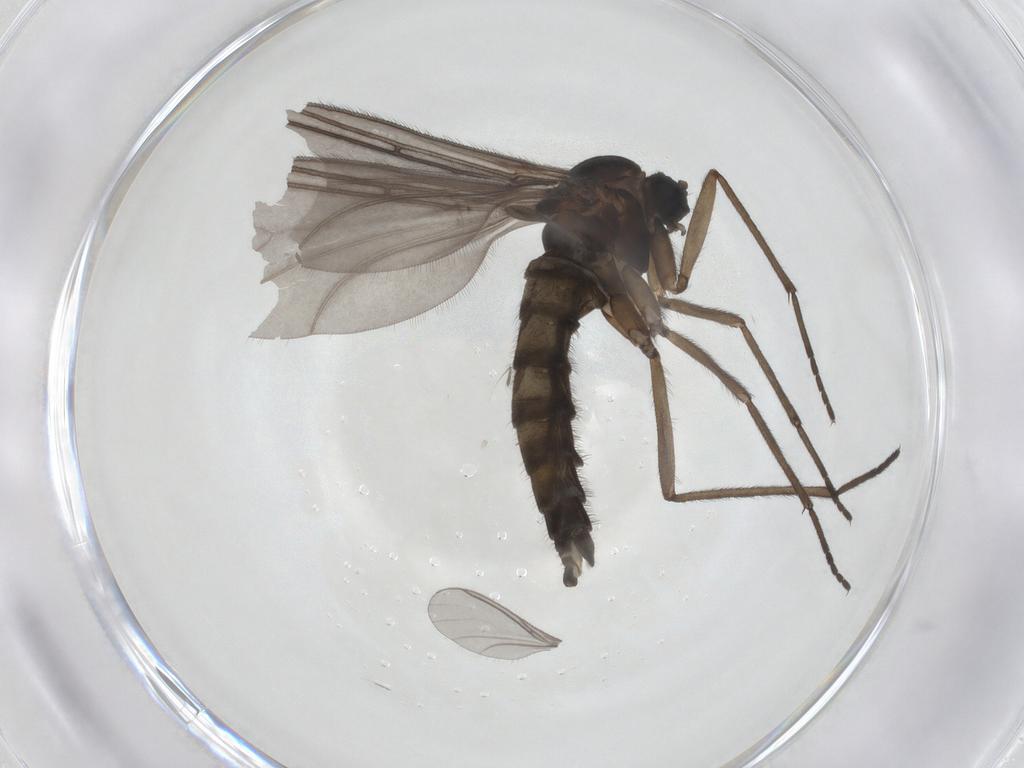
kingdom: Animalia
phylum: Arthropoda
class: Insecta
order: Diptera
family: Sciaridae
